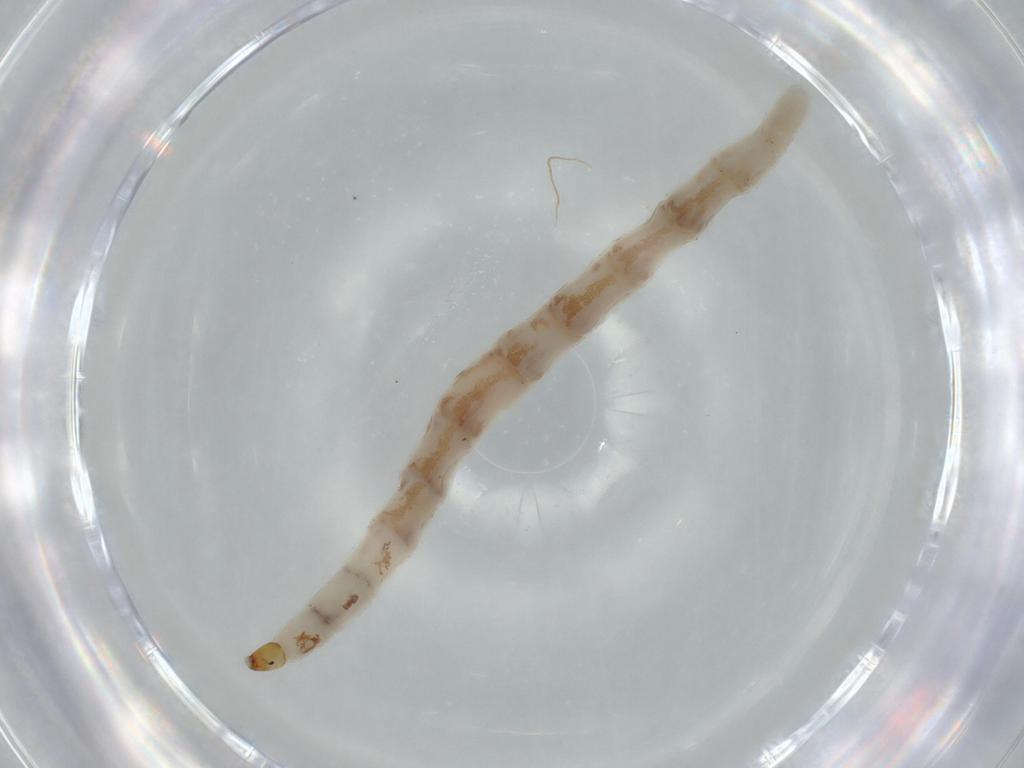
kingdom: Animalia
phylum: Arthropoda
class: Insecta
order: Diptera
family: Ceratopogonidae
